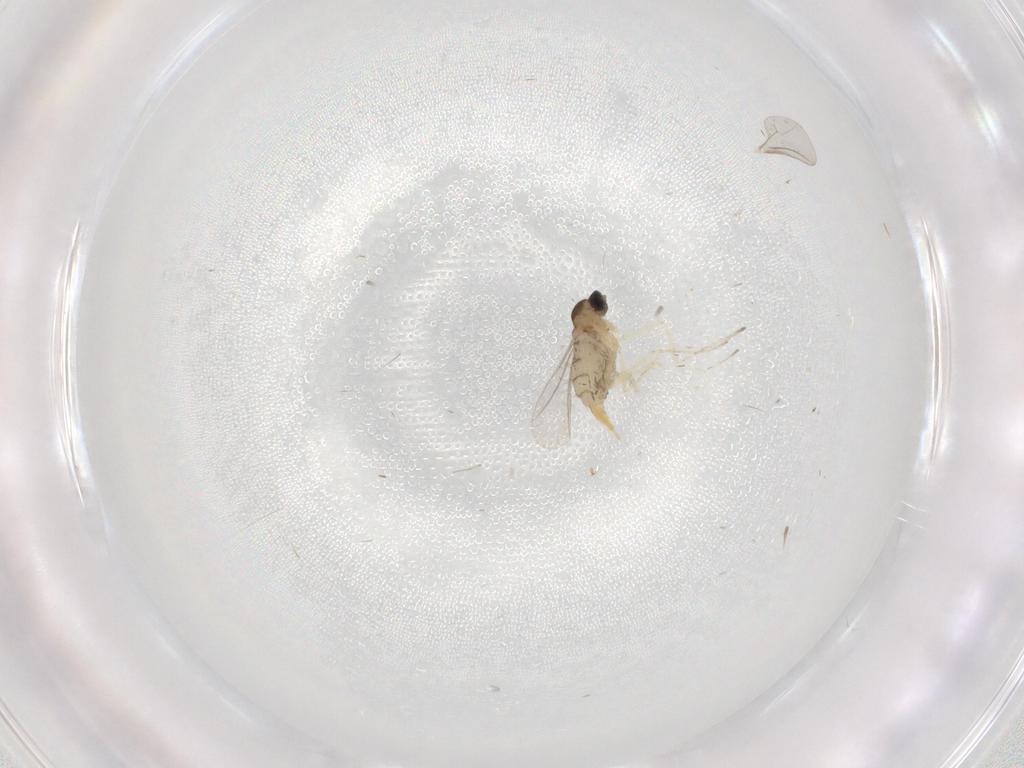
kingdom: Animalia
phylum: Arthropoda
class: Insecta
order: Diptera
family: Cecidomyiidae
